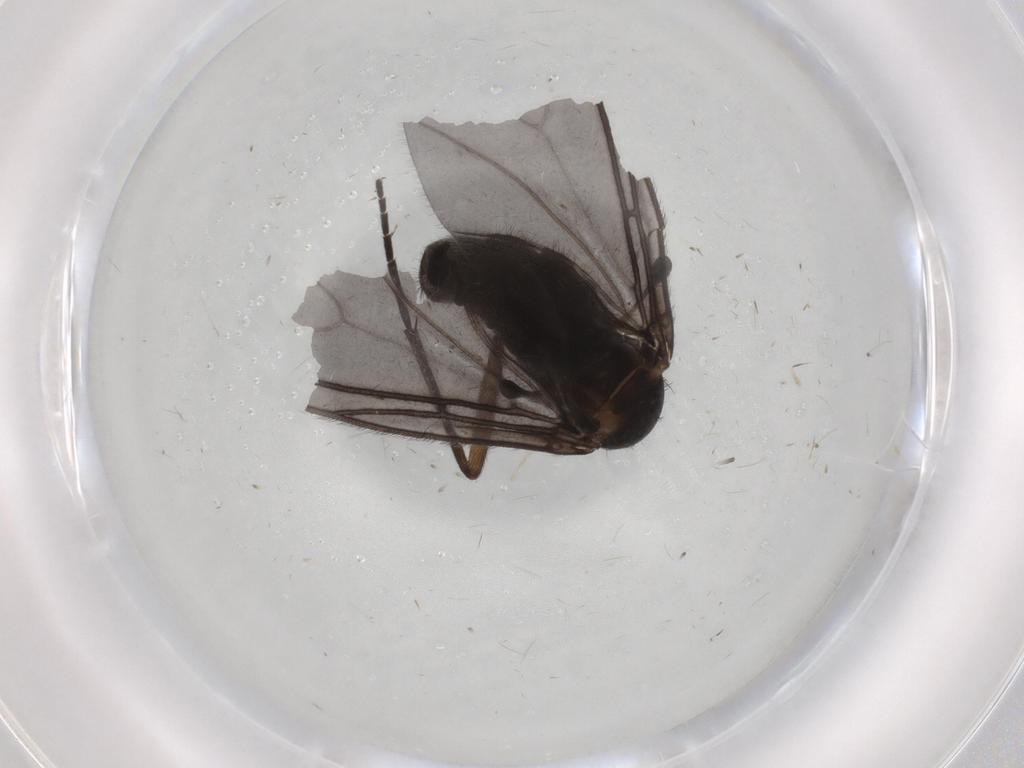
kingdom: Animalia
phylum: Arthropoda
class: Insecta
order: Diptera
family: Sciaridae
